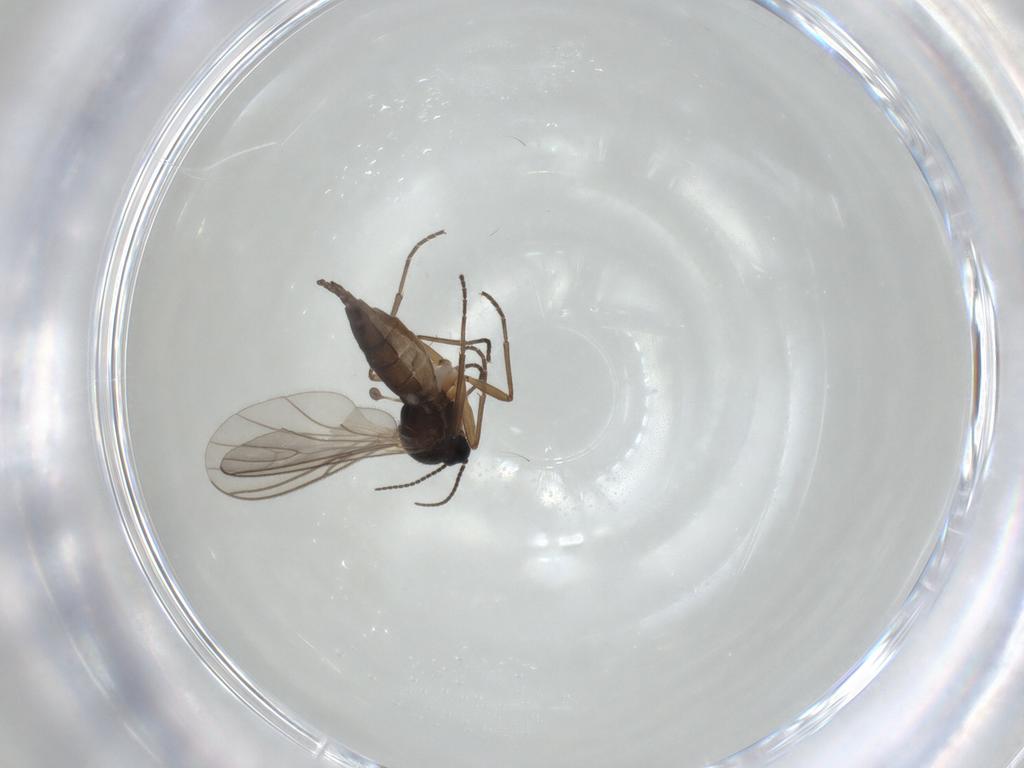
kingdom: Animalia
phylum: Arthropoda
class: Insecta
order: Diptera
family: Sciaridae
